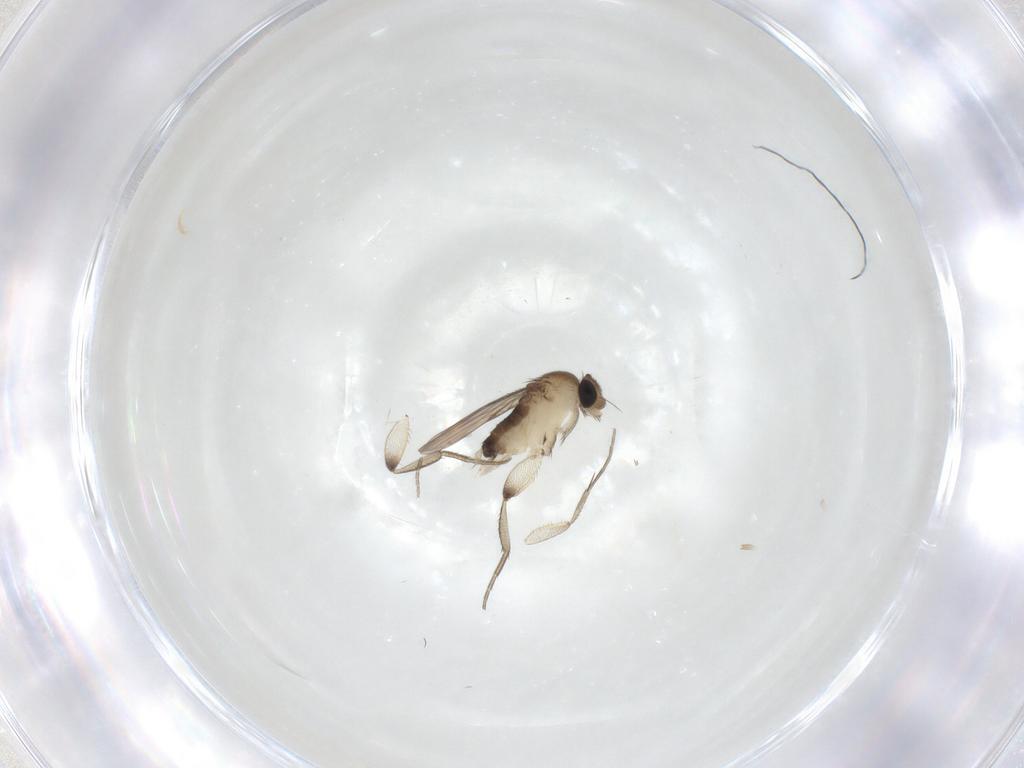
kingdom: Animalia
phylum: Arthropoda
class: Insecta
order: Diptera
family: Phoridae
